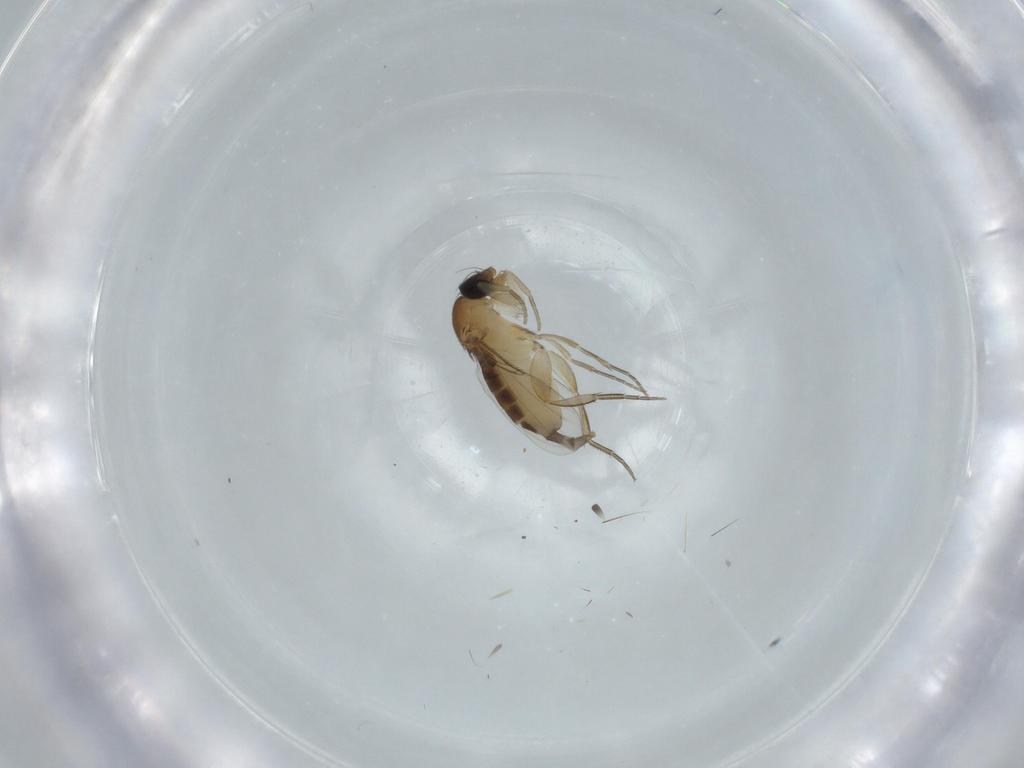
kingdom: Animalia
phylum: Arthropoda
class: Insecta
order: Diptera
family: Phoridae
